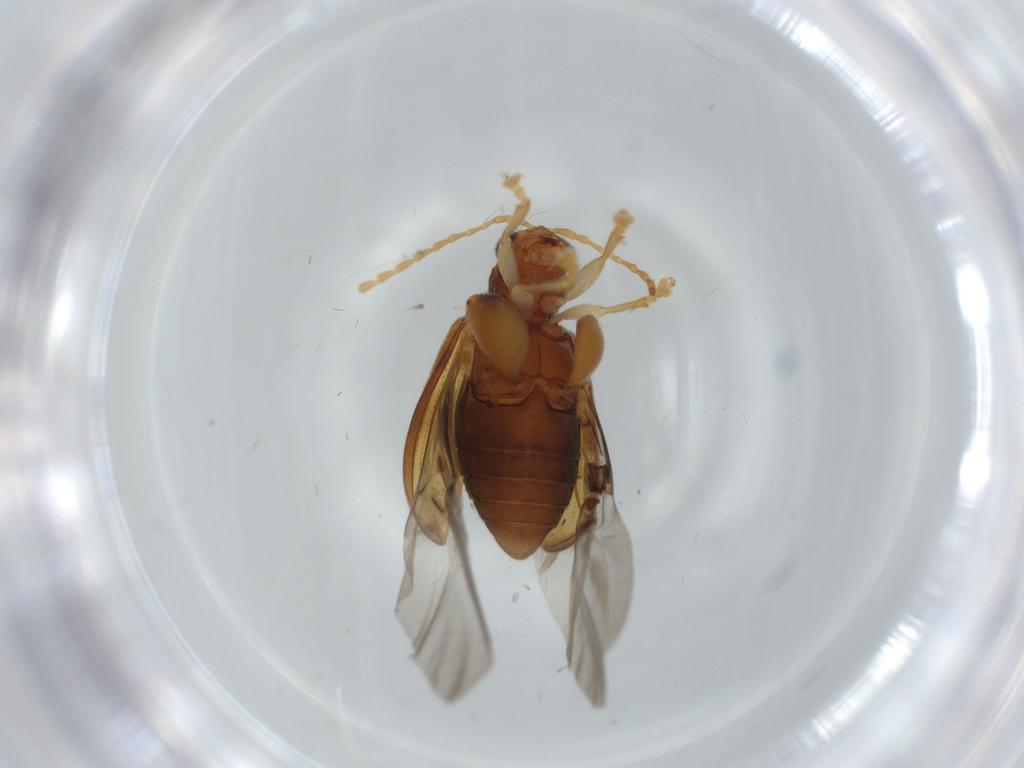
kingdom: Animalia
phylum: Arthropoda
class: Insecta
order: Coleoptera
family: Chrysomelidae
